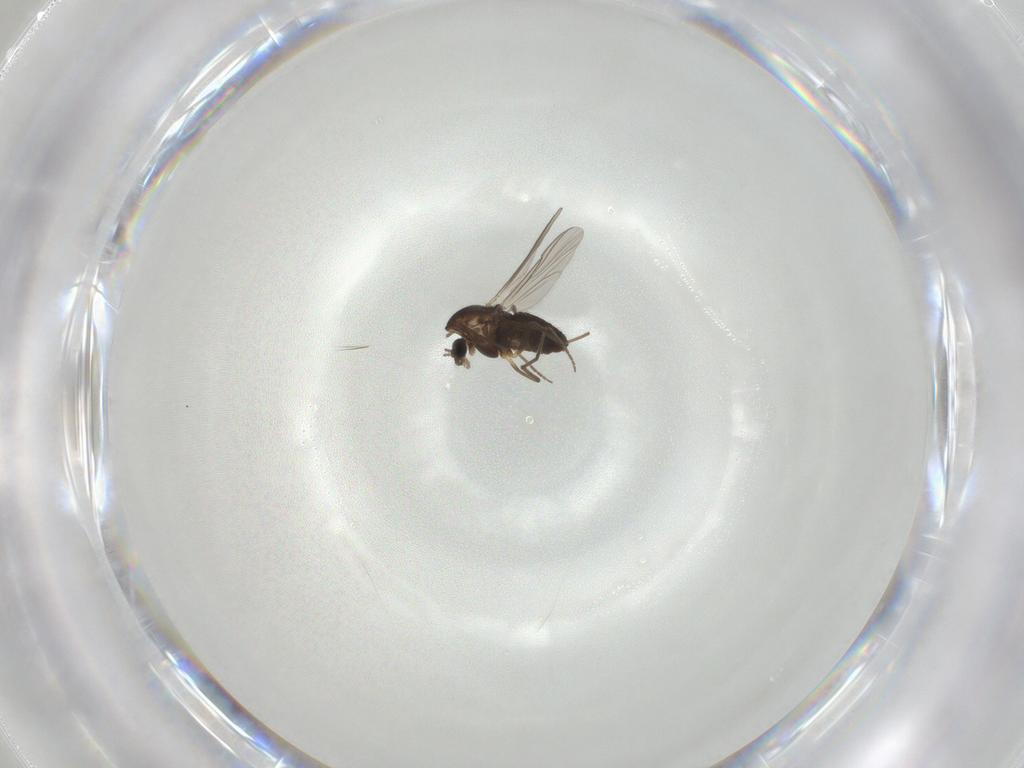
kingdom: Animalia
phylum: Arthropoda
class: Insecta
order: Diptera
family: Chironomidae
